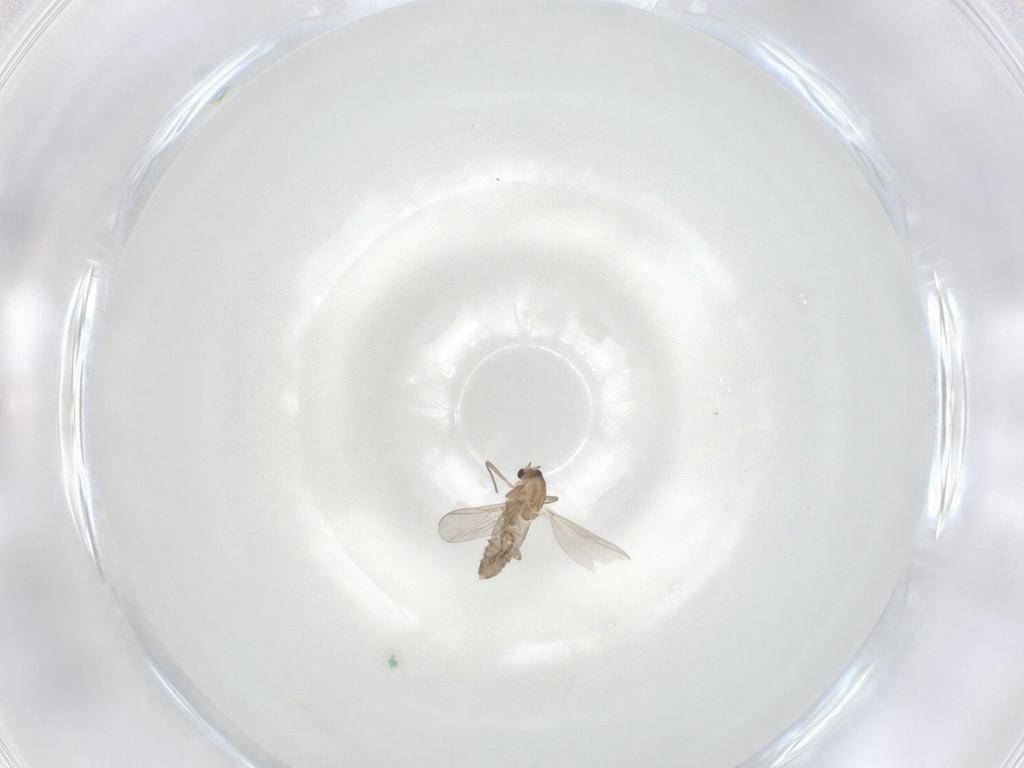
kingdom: Animalia
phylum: Arthropoda
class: Insecta
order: Diptera
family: Chironomidae
